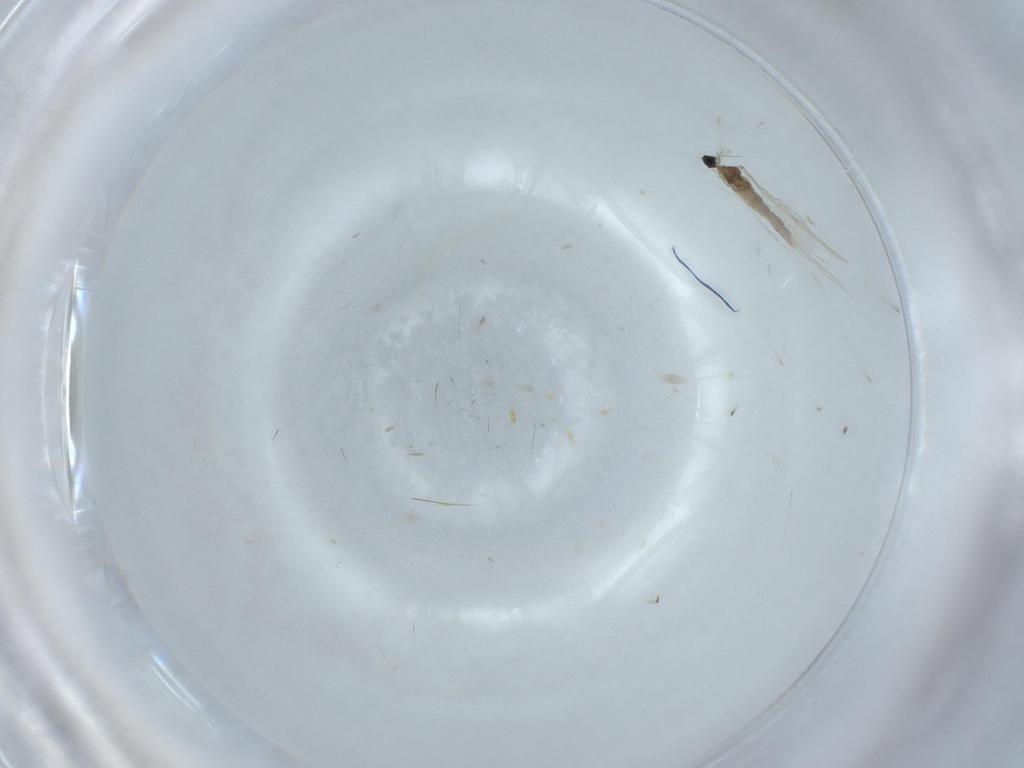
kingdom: Animalia
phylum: Arthropoda
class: Insecta
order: Diptera
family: Cecidomyiidae
